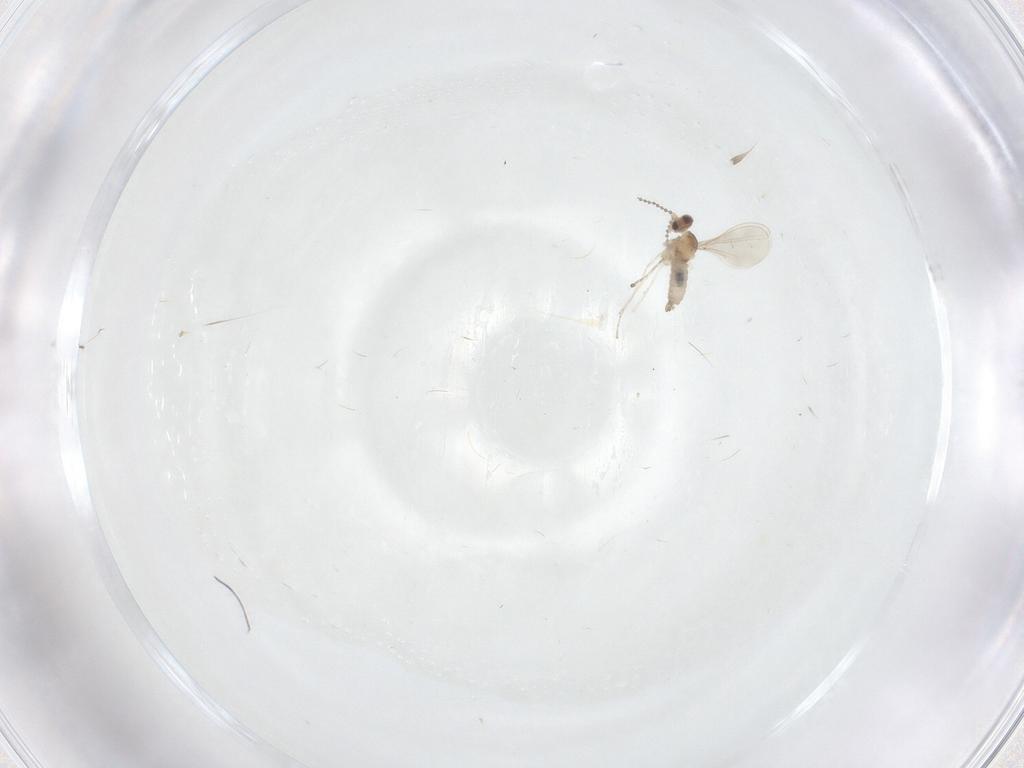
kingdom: Animalia
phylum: Arthropoda
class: Insecta
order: Diptera
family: Cecidomyiidae
